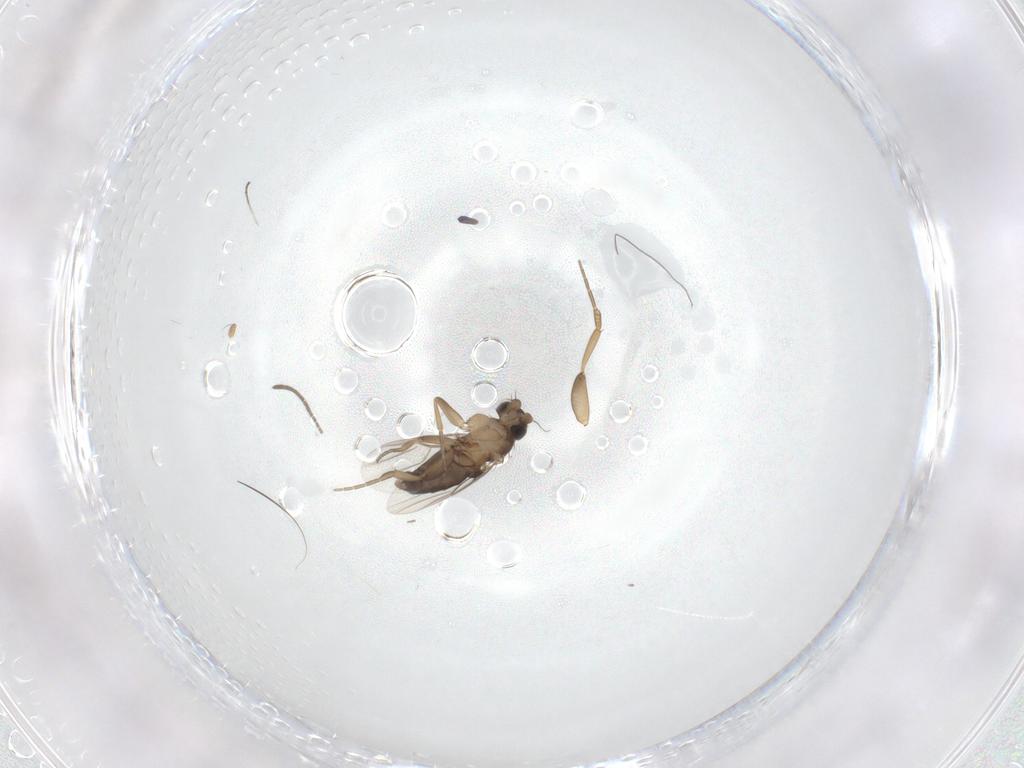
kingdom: Animalia
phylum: Arthropoda
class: Insecta
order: Diptera
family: Phoridae
